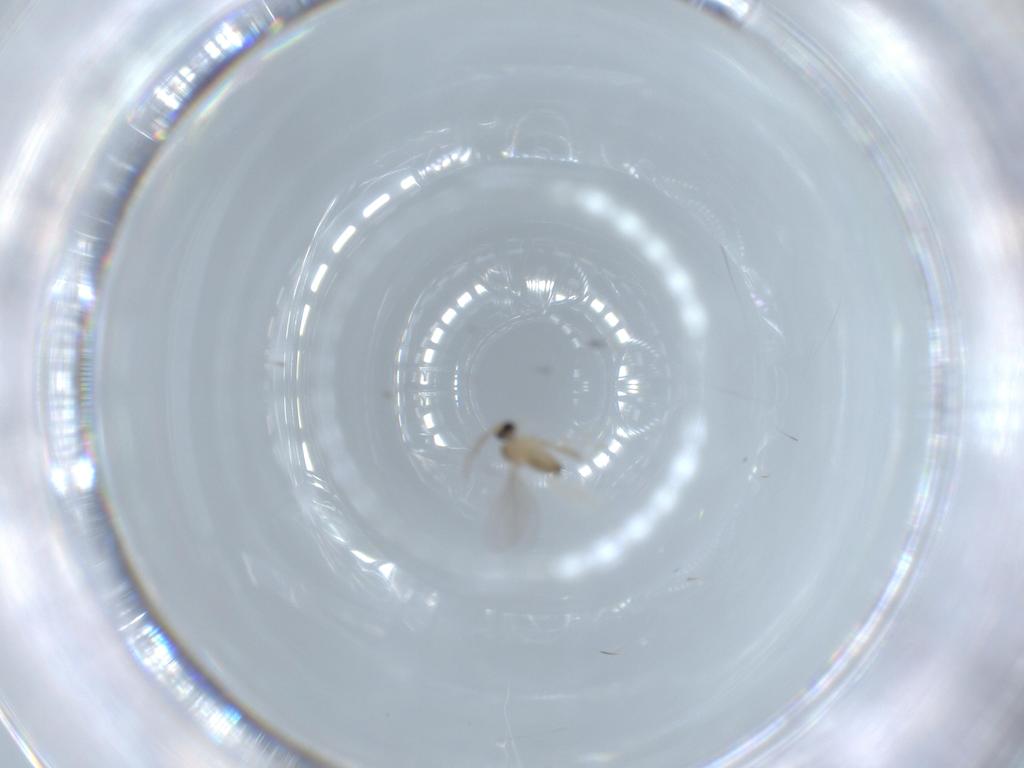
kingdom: Animalia
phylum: Arthropoda
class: Insecta
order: Diptera
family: Cecidomyiidae
